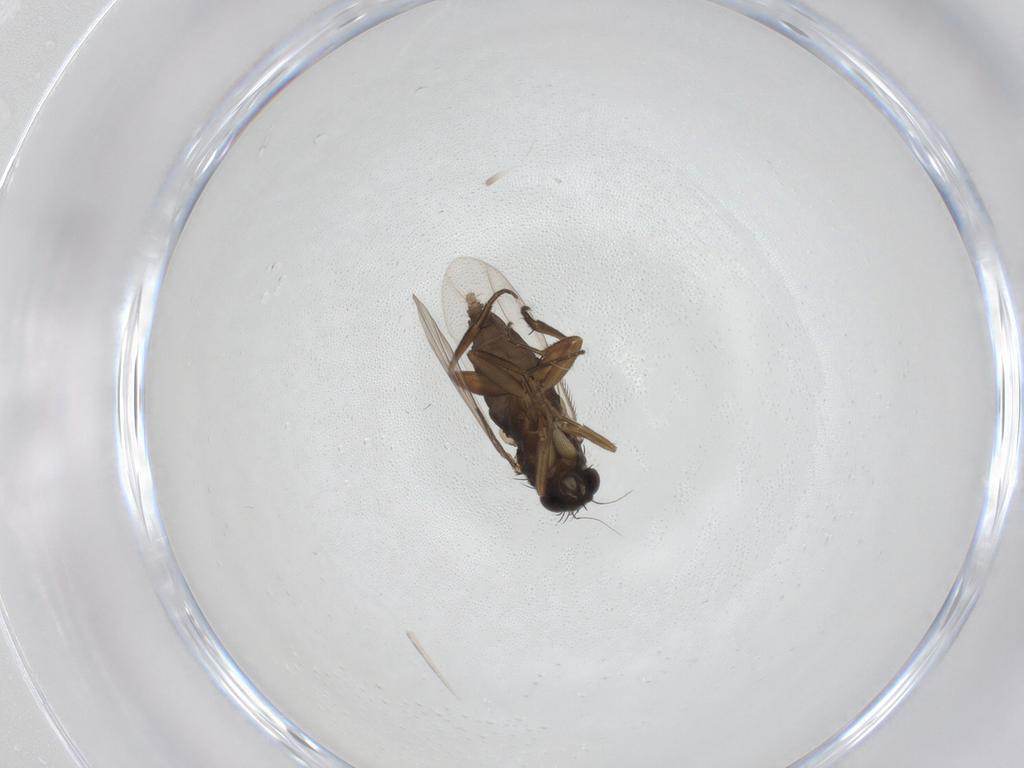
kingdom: Animalia
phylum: Arthropoda
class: Insecta
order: Diptera
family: Phoridae
